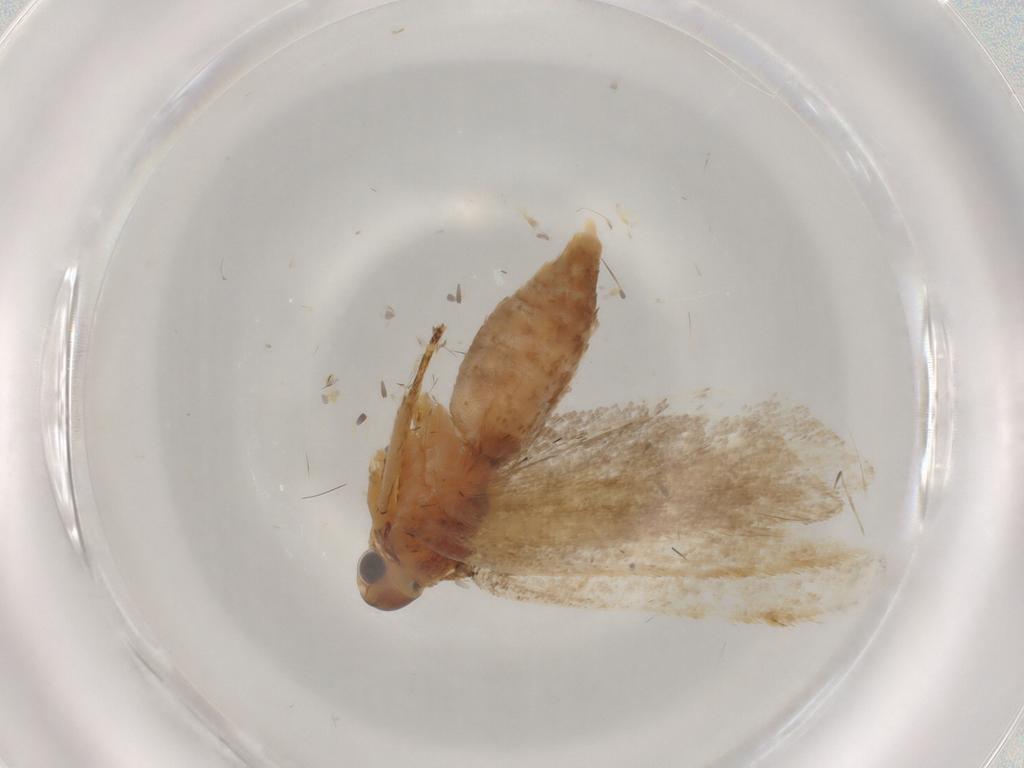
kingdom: Animalia
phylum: Arthropoda
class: Insecta
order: Lepidoptera
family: Lecithoceridae
